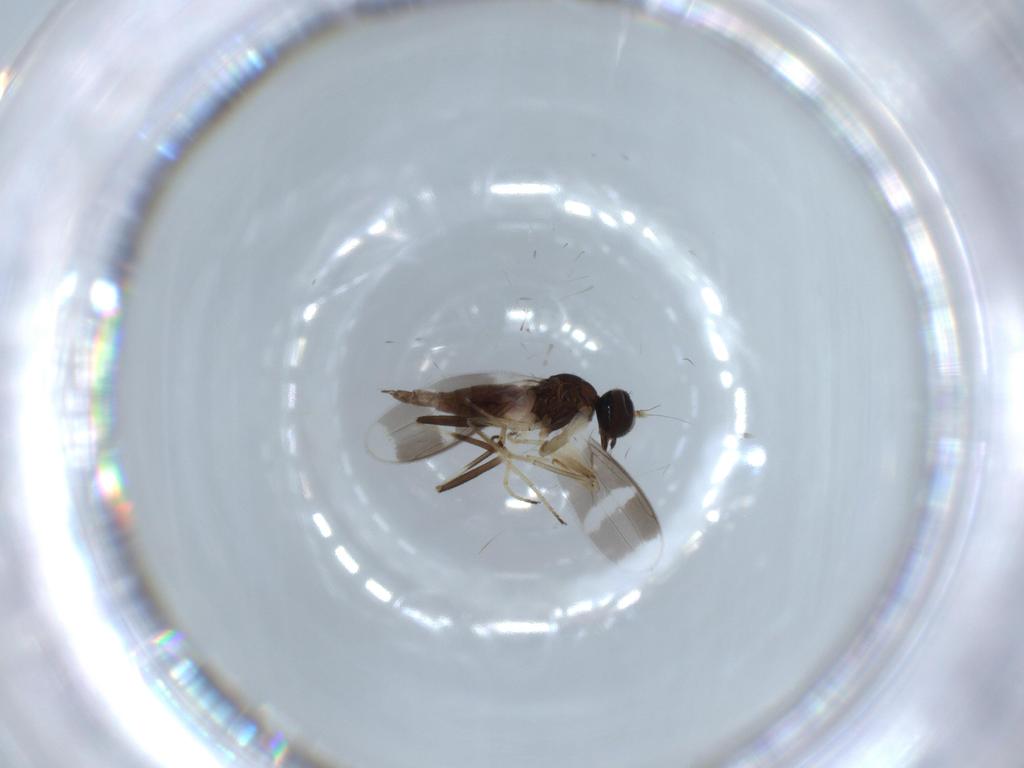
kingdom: Animalia
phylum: Arthropoda
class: Insecta
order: Diptera
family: Hybotidae
